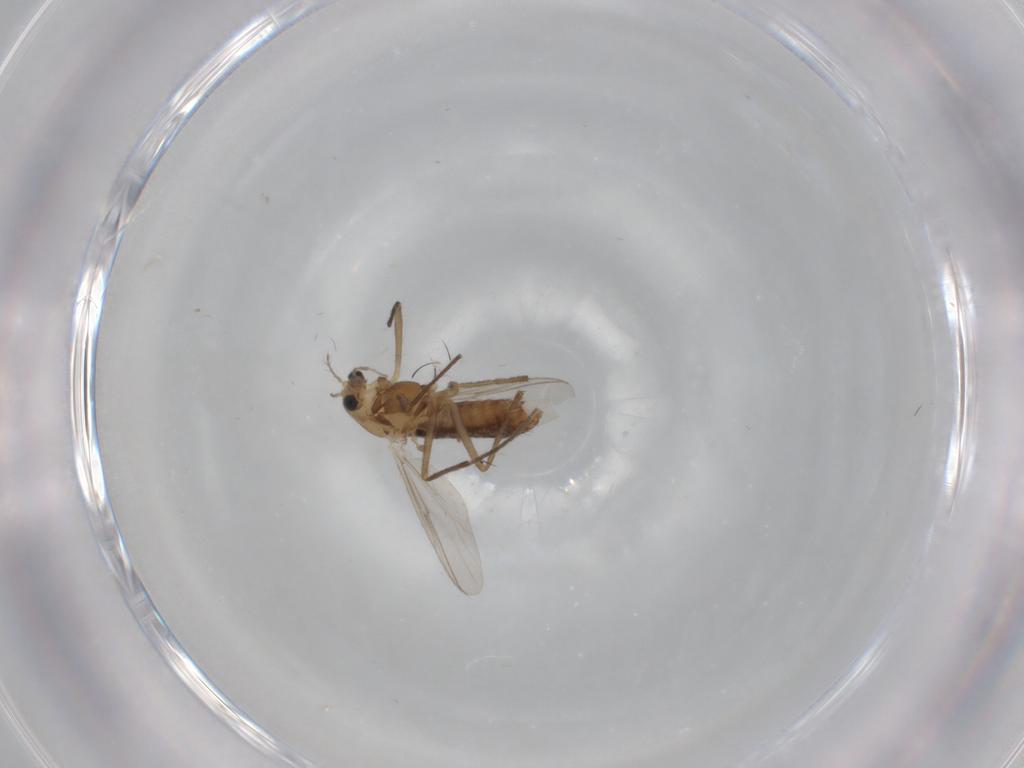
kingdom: Animalia
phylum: Arthropoda
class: Insecta
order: Diptera
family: Chironomidae
